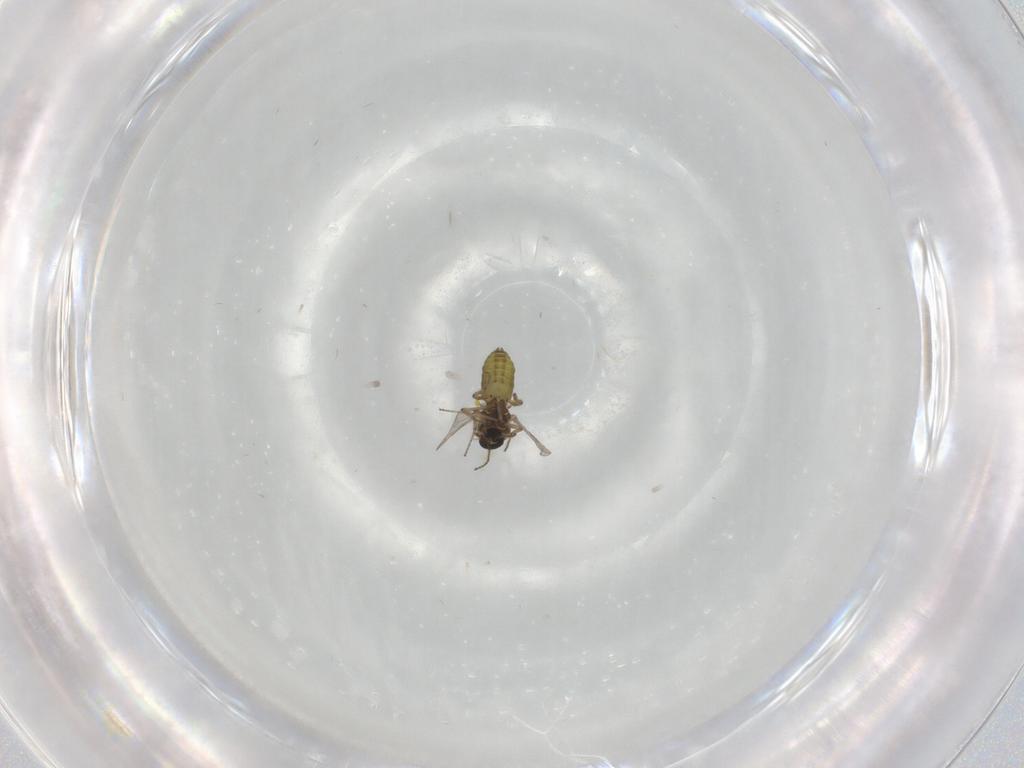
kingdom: Animalia
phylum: Arthropoda
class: Insecta
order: Diptera
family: Ceratopogonidae
